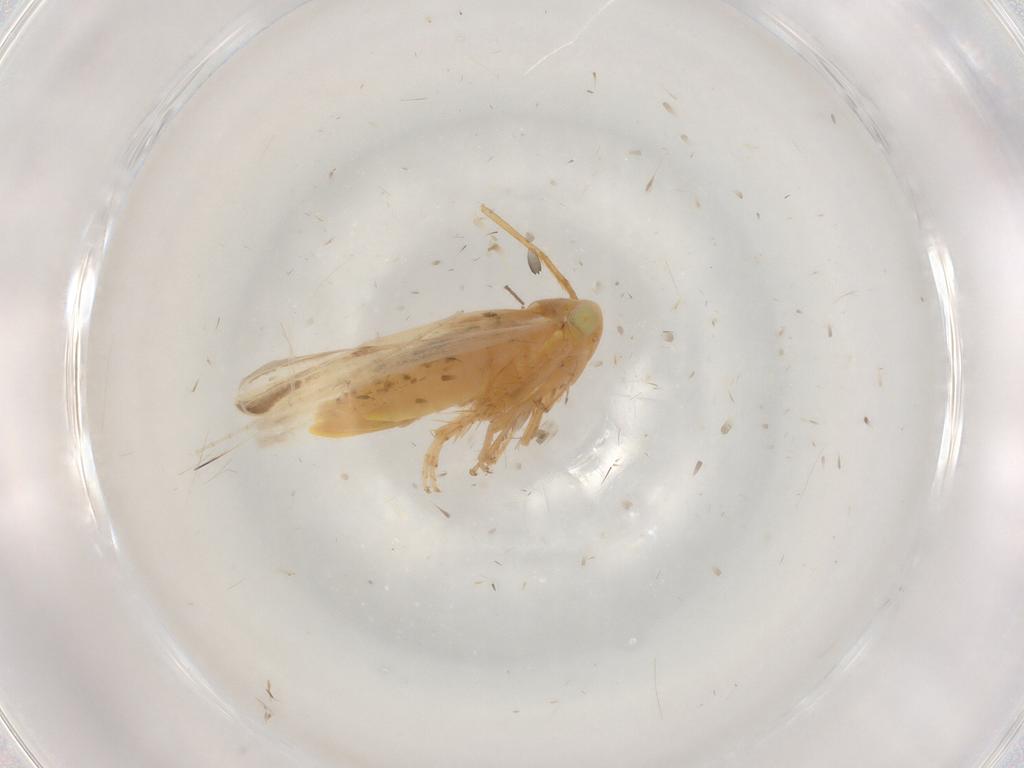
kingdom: Animalia
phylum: Arthropoda
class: Insecta
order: Hemiptera
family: Cicadellidae
